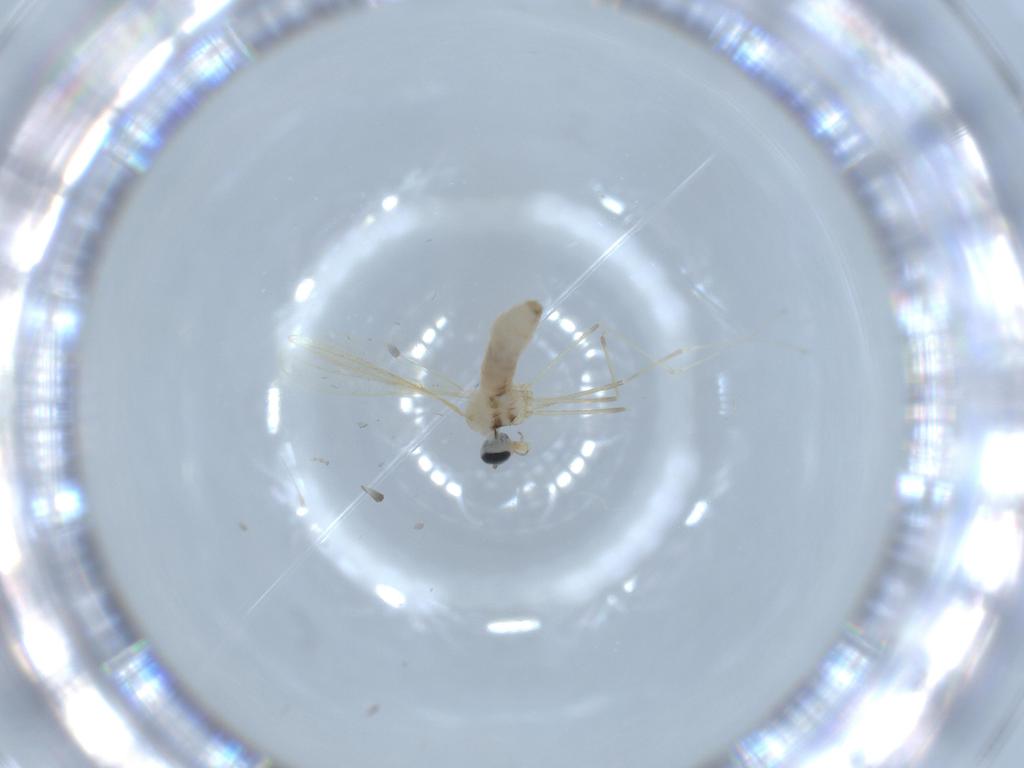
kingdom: Animalia
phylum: Arthropoda
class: Insecta
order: Diptera
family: Cecidomyiidae
